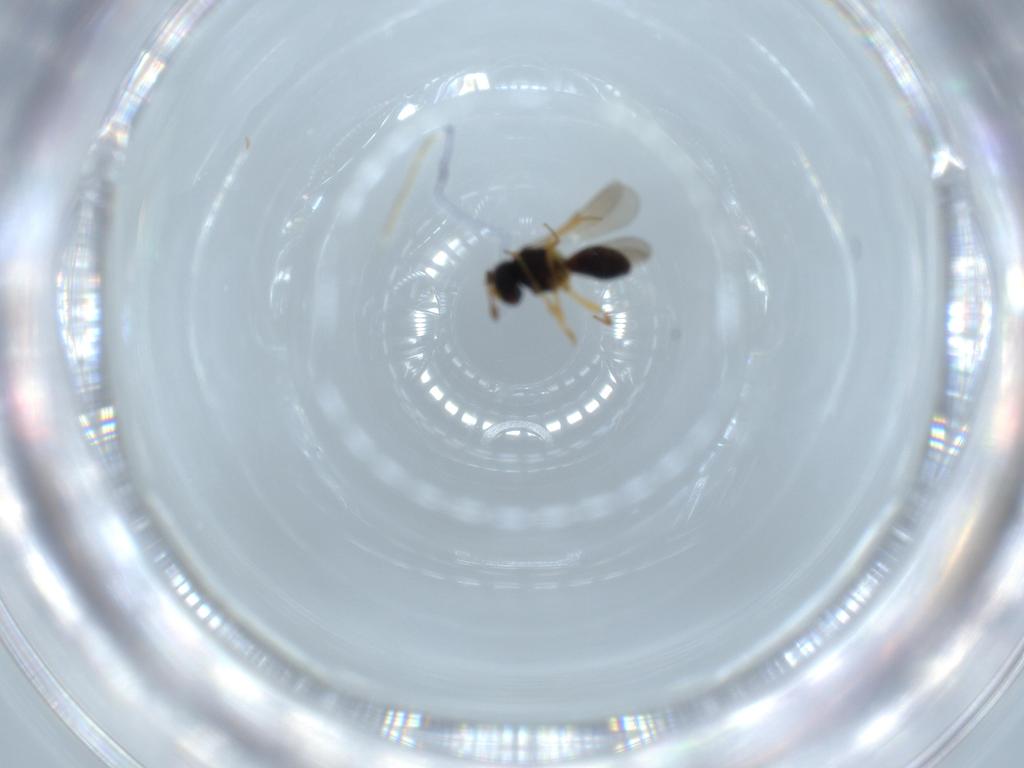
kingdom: Animalia
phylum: Arthropoda
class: Insecta
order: Hymenoptera
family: Scelionidae
